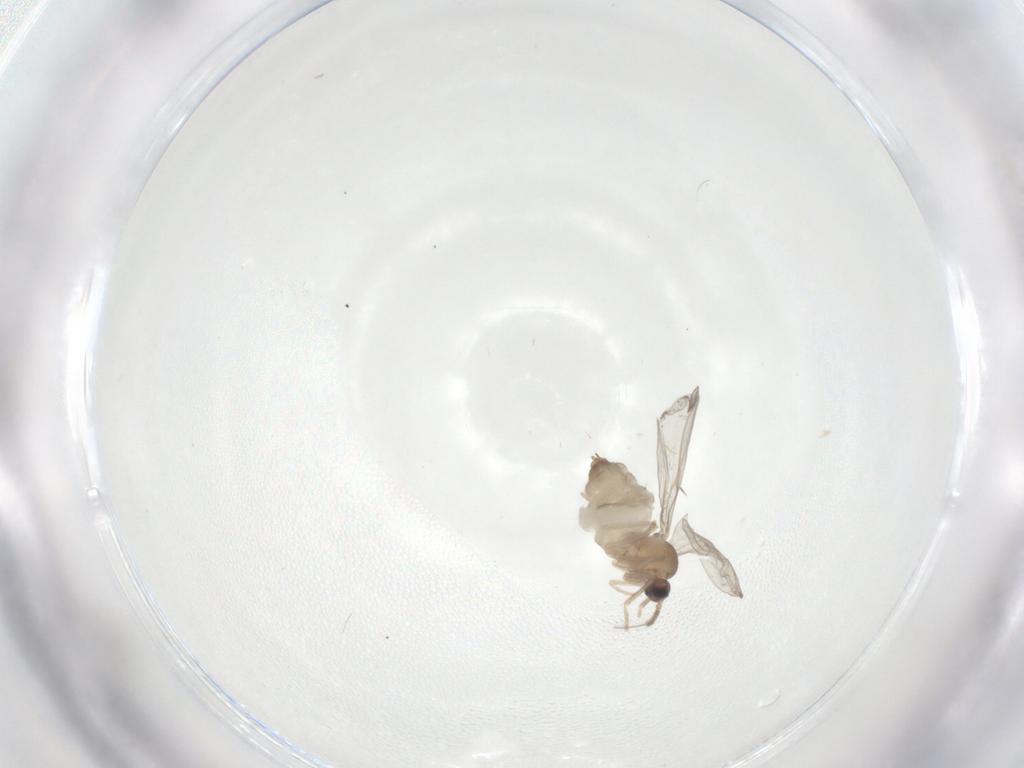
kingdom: Animalia
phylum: Arthropoda
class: Insecta
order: Diptera
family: Cecidomyiidae
